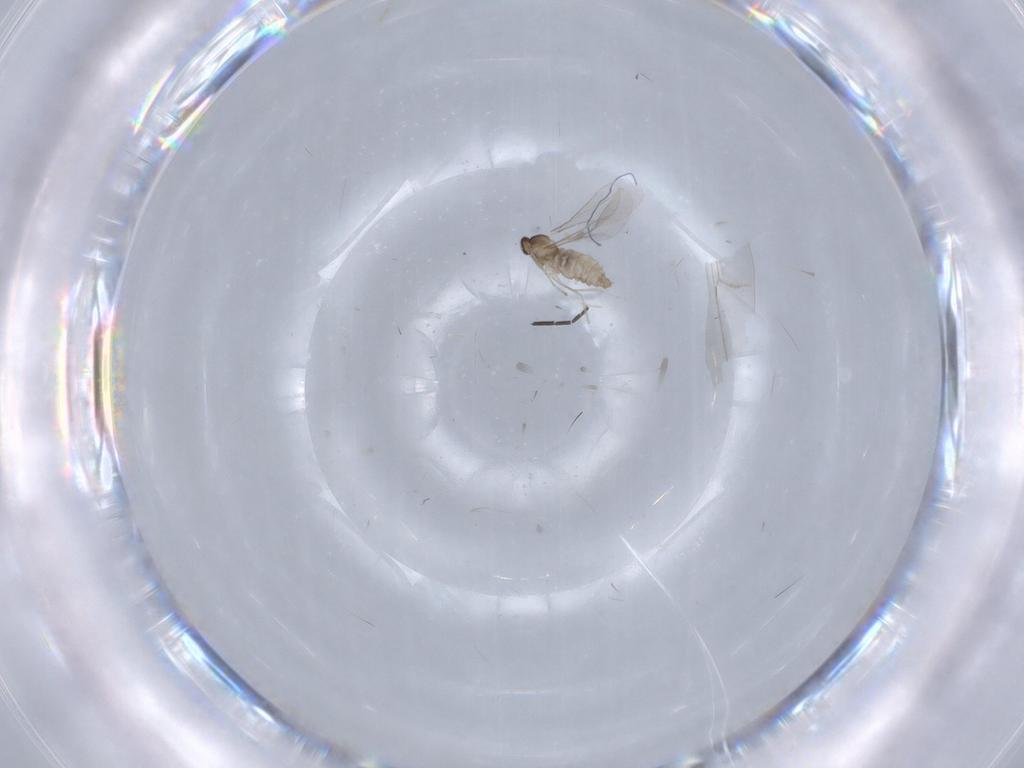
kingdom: Animalia
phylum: Arthropoda
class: Insecta
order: Diptera
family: Cecidomyiidae
